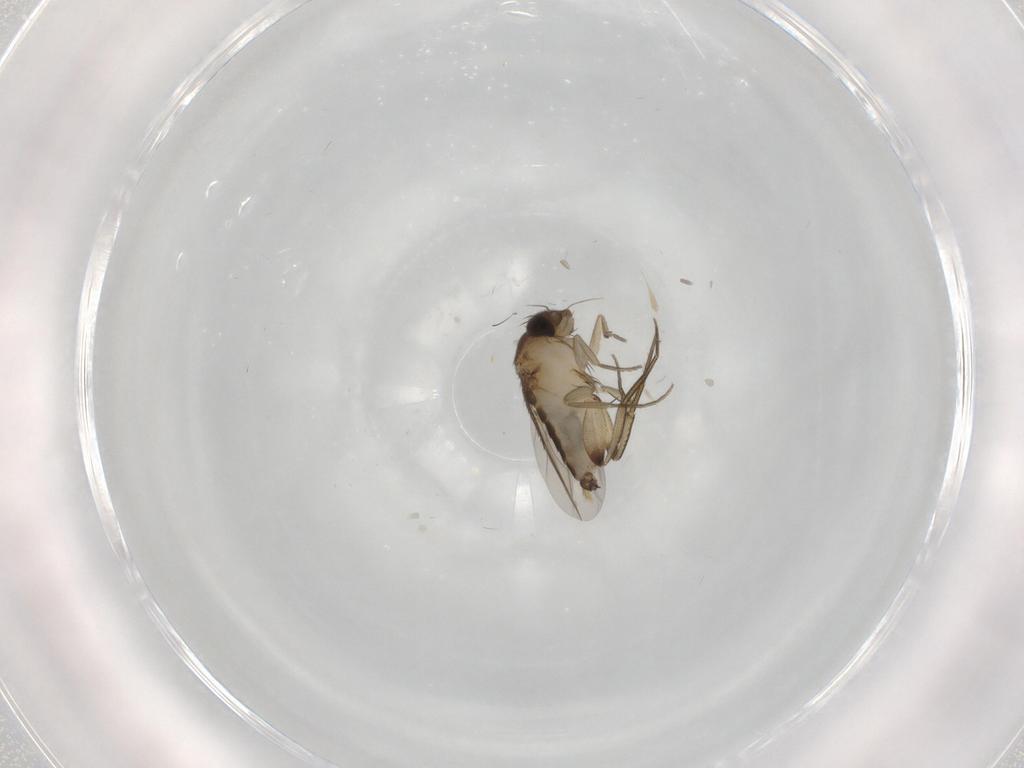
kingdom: Animalia
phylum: Arthropoda
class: Insecta
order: Diptera
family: Phoridae
